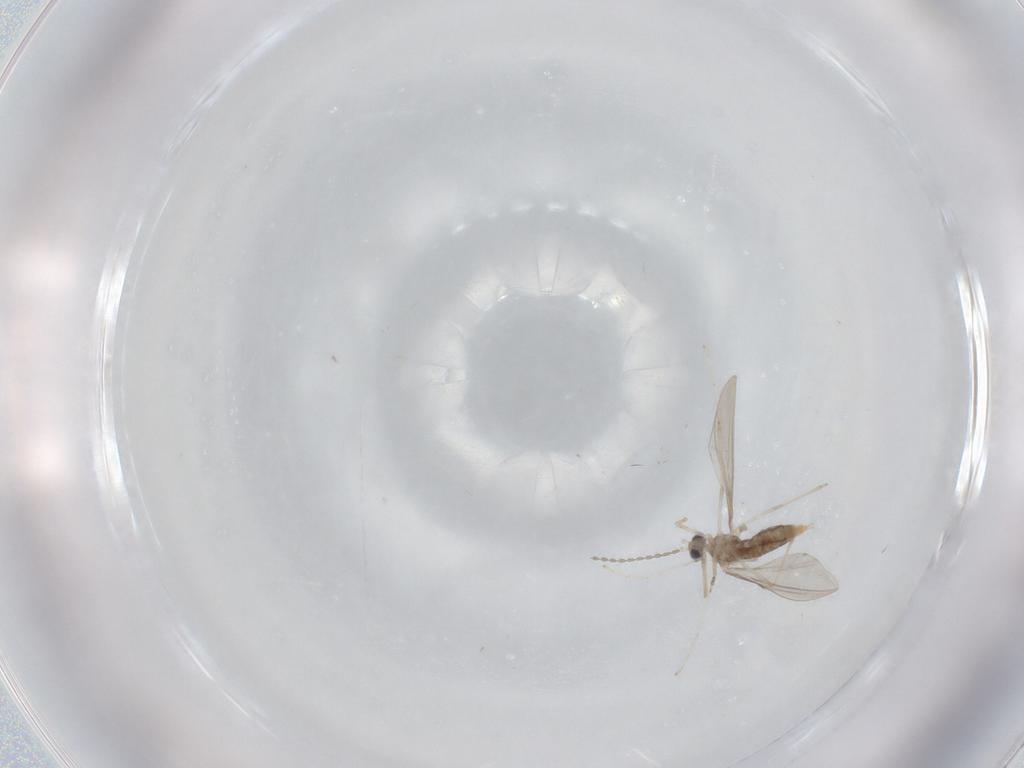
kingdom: Animalia
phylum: Arthropoda
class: Insecta
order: Diptera
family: Cecidomyiidae
